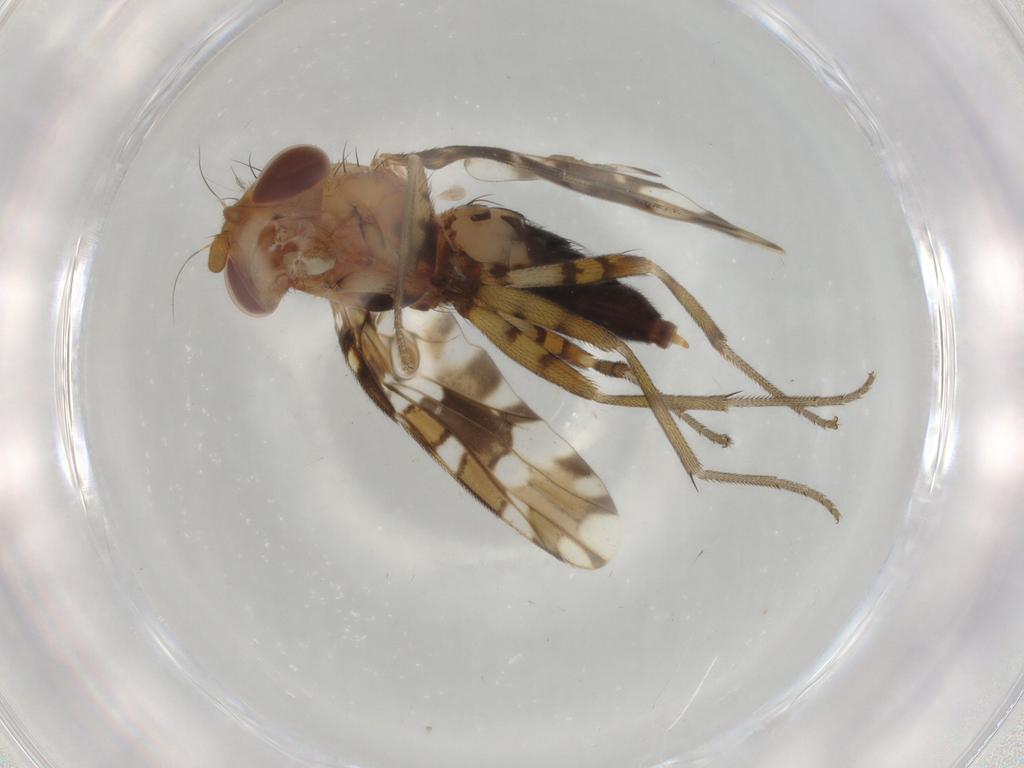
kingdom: Animalia
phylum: Arthropoda
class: Insecta
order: Diptera
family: Ulidiidae
